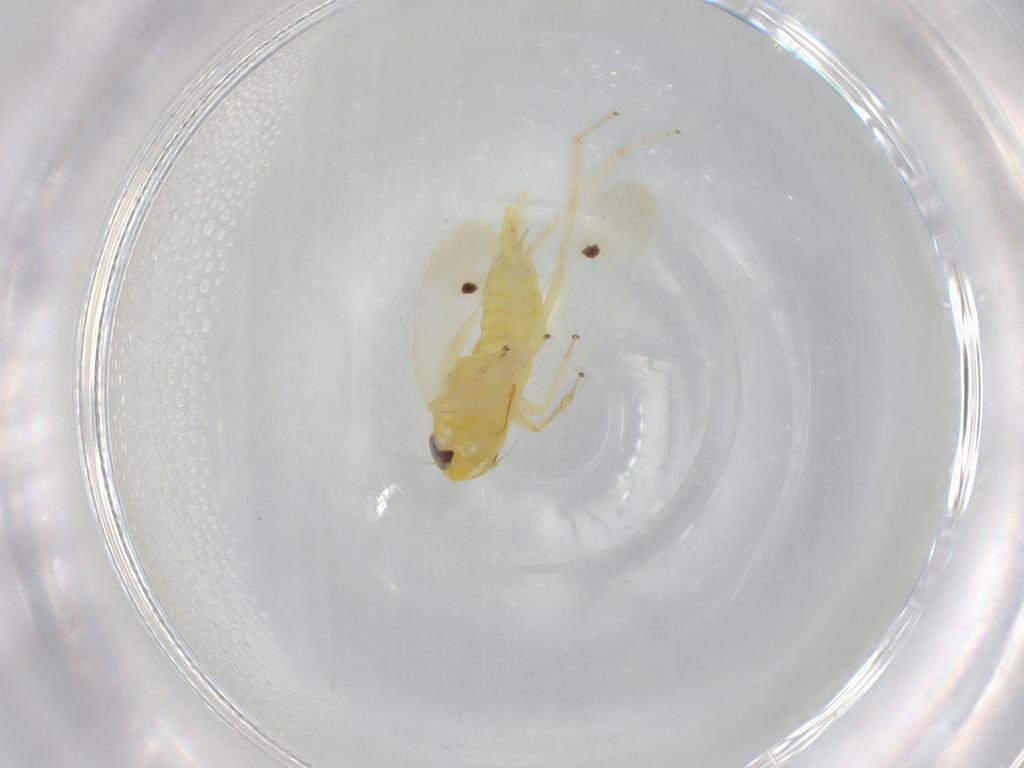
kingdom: Animalia
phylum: Arthropoda
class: Insecta
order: Hemiptera
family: Cicadellidae
